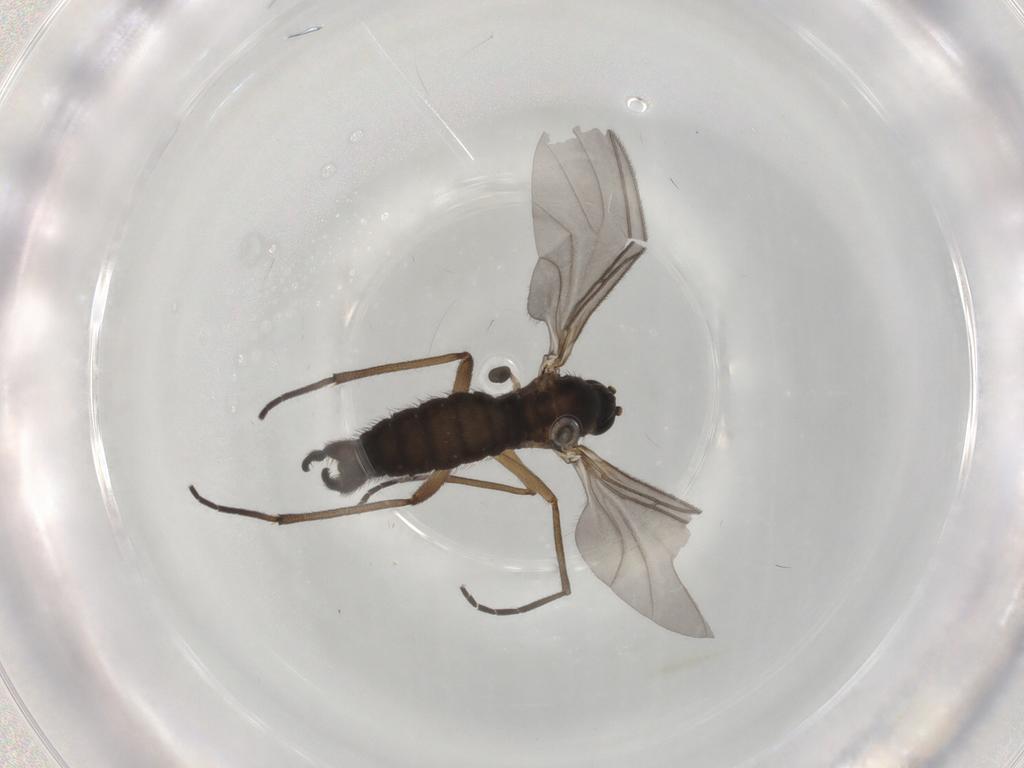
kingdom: Animalia
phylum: Arthropoda
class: Insecta
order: Diptera
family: Sciaridae
